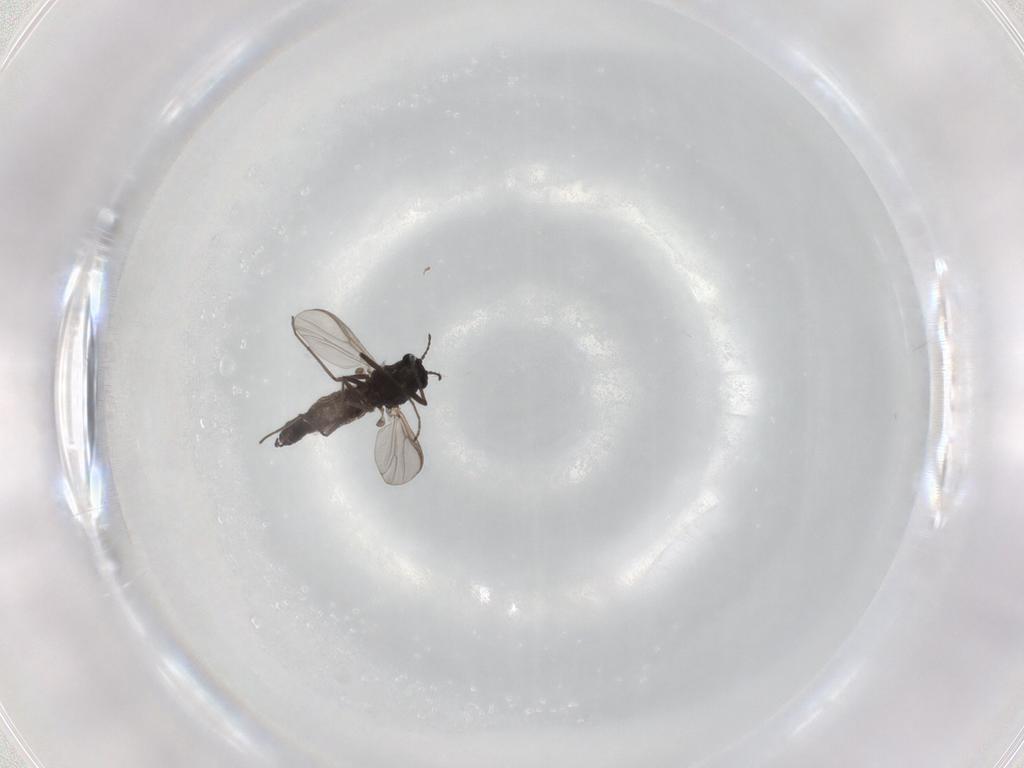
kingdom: Animalia
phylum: Arthropoda
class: Insecta
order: Diptera
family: Chironomidae
